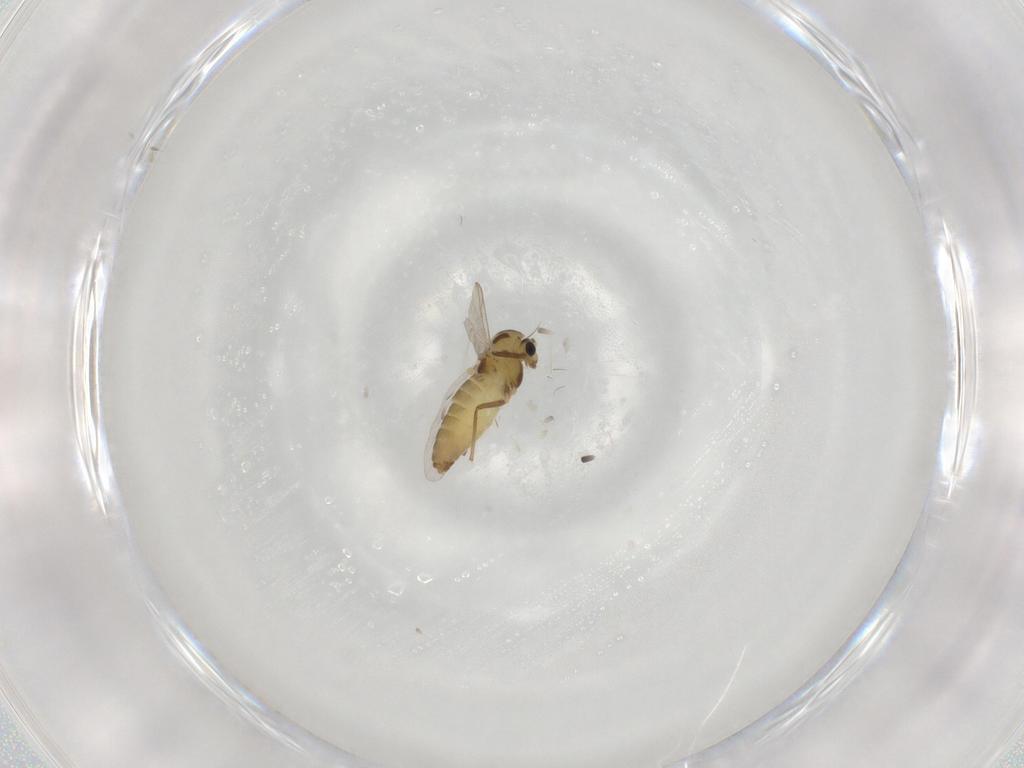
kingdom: Animalia
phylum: Arthropoda
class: Insecta
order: Diptera
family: Chironomidae
